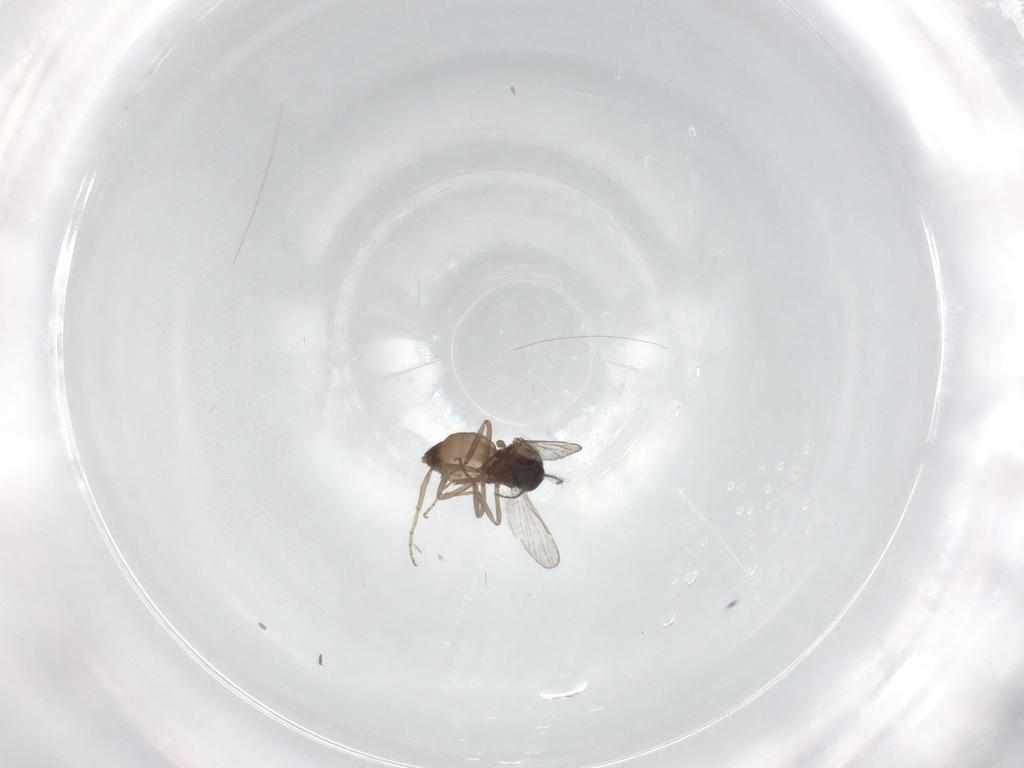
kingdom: Animalia
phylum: Arthropoda
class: Insecta
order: Diptera
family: Ceratopogonidae
